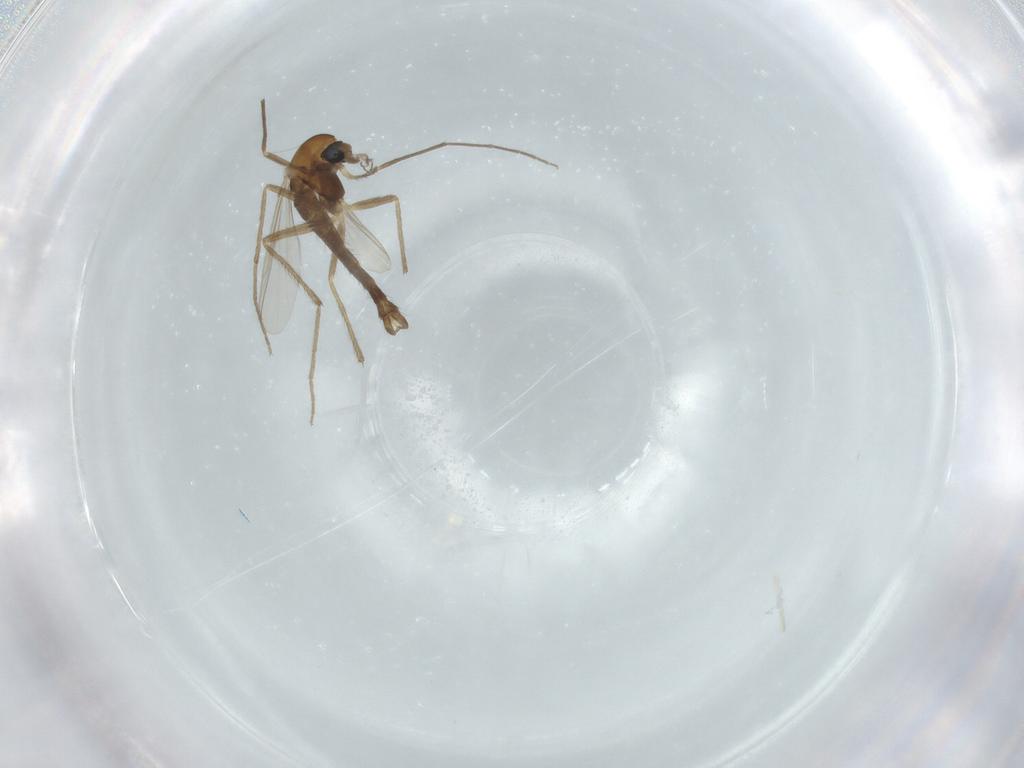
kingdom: Animalia
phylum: Arthropoda
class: Insecta
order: Diptera
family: Chironomidae
